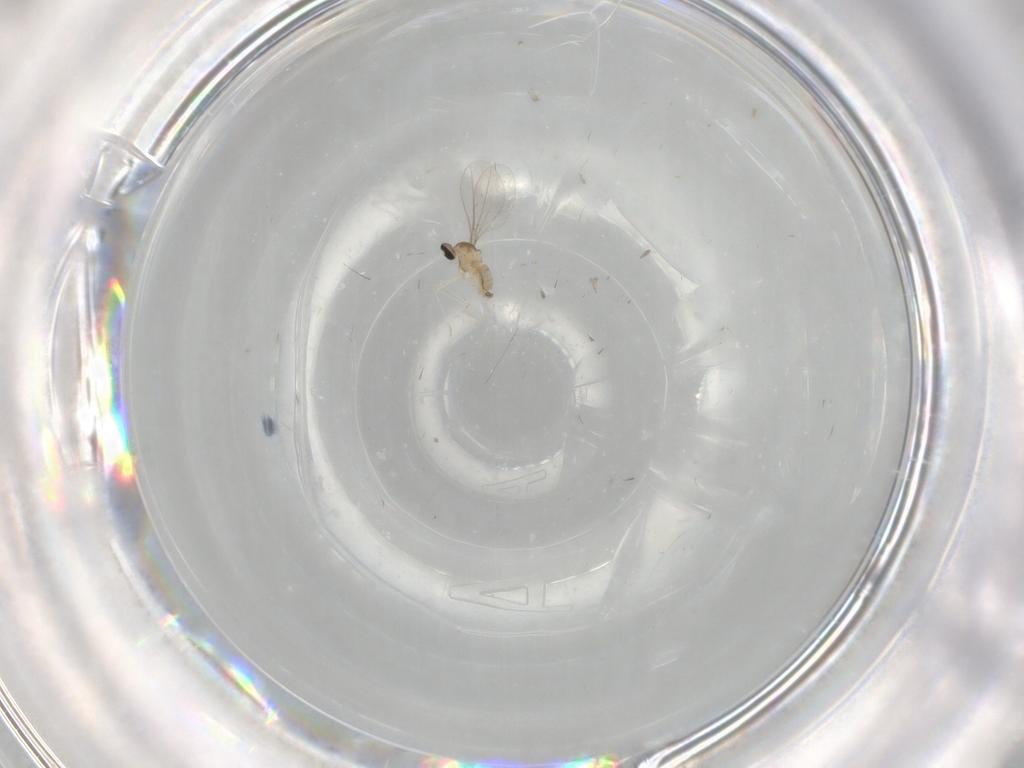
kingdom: Animalia
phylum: Arthropoda
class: Insecta
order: Diptera
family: Cecidomyiidae
